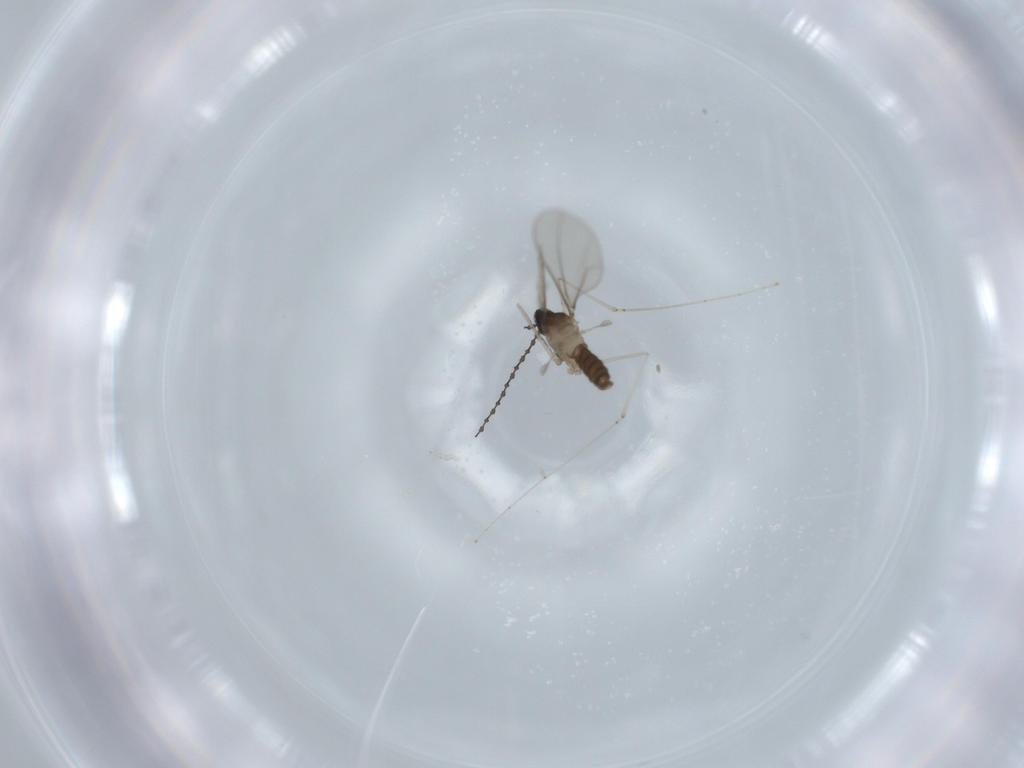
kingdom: Animalia
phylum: Arthropoda
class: Insecta
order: Diptera
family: Cecidomyiidae
